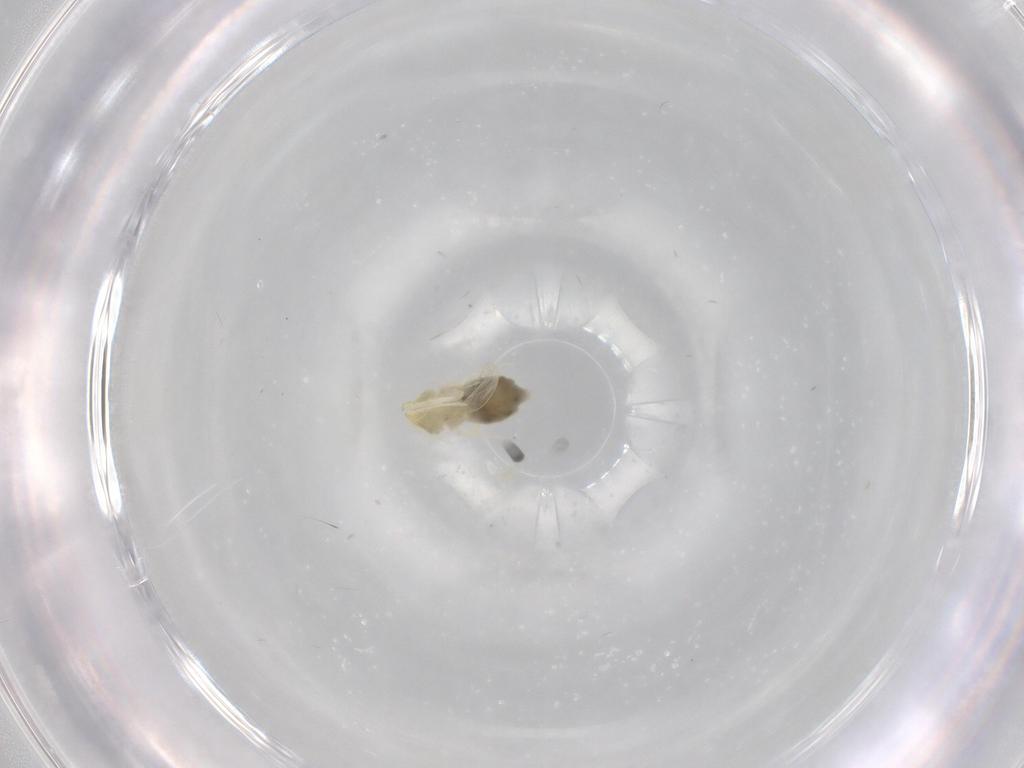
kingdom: Animalia
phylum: Arthropoda
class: Insecta
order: Hemiptera
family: Aleyrodidae
